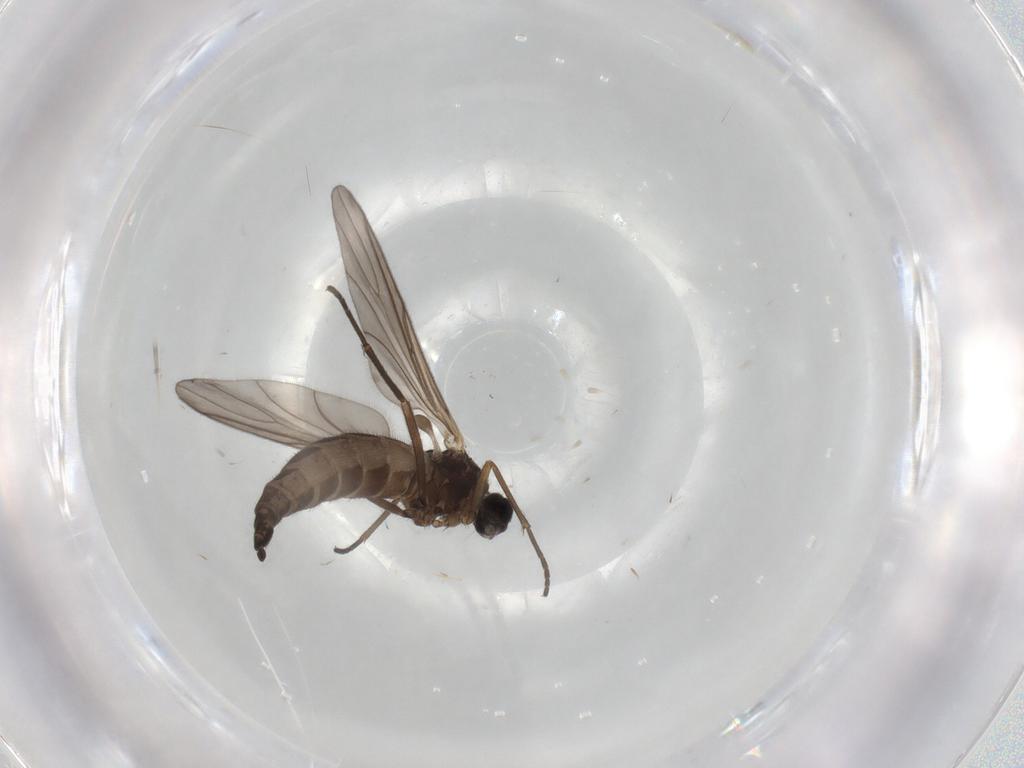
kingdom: Animalia
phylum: Arthropoda
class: Insecta
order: Diptera
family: Sciaridae
